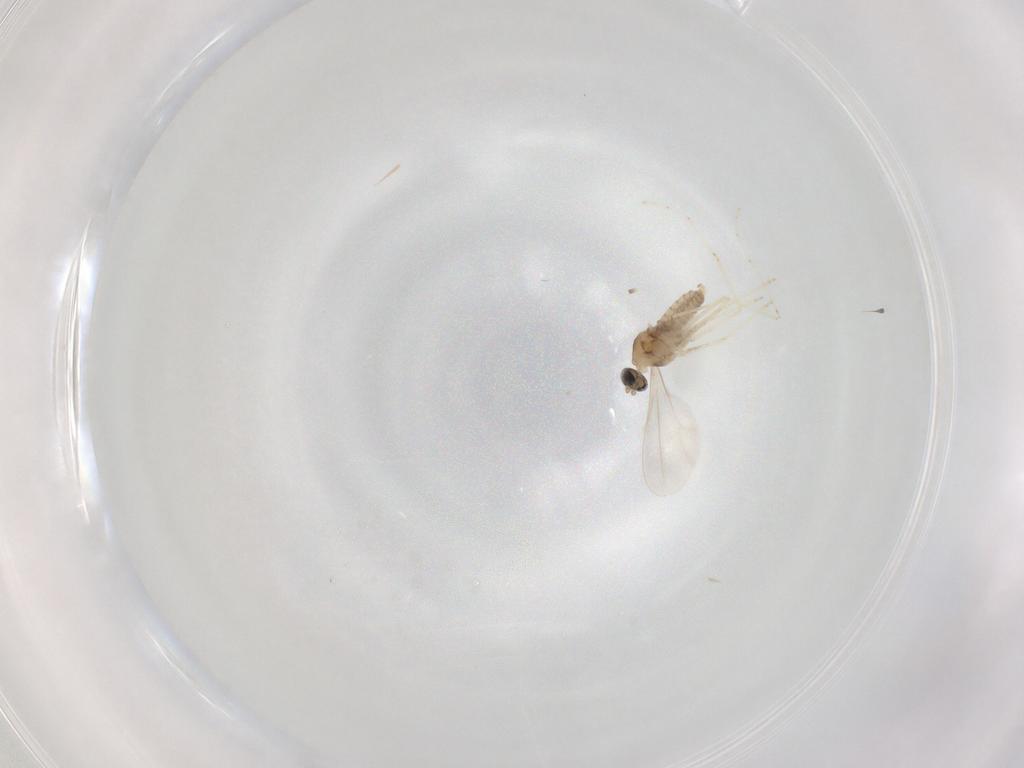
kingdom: Animalia
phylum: Arthropoda
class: Insecta
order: Diptera
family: Cecidomyiidae
